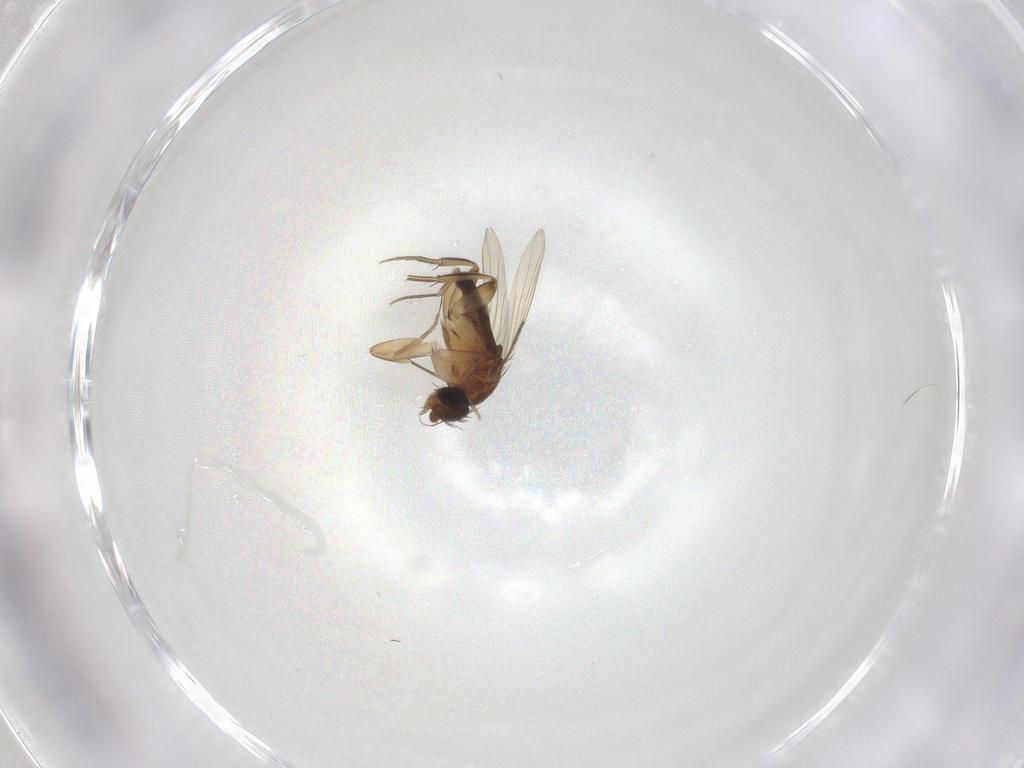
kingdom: Animalia
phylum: Arthropoda
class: Insecta
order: Diptera
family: Phoridae
